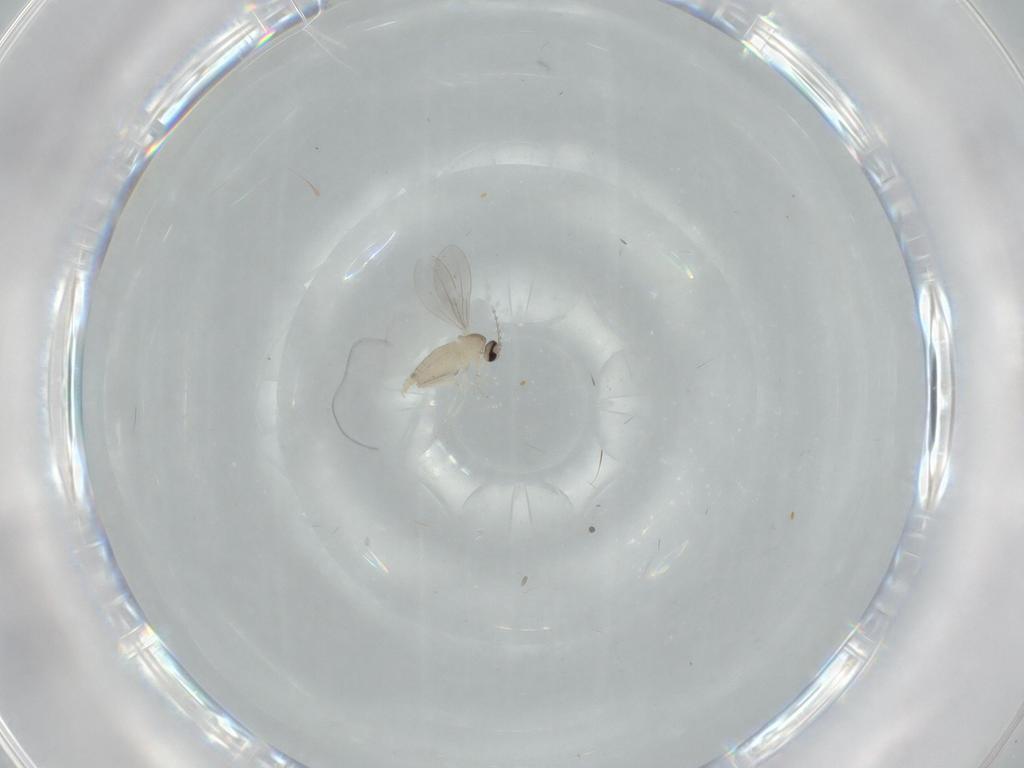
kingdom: Animalia
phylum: Arthropoda
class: Insecta
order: Diptera
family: Cecidomyiidae
